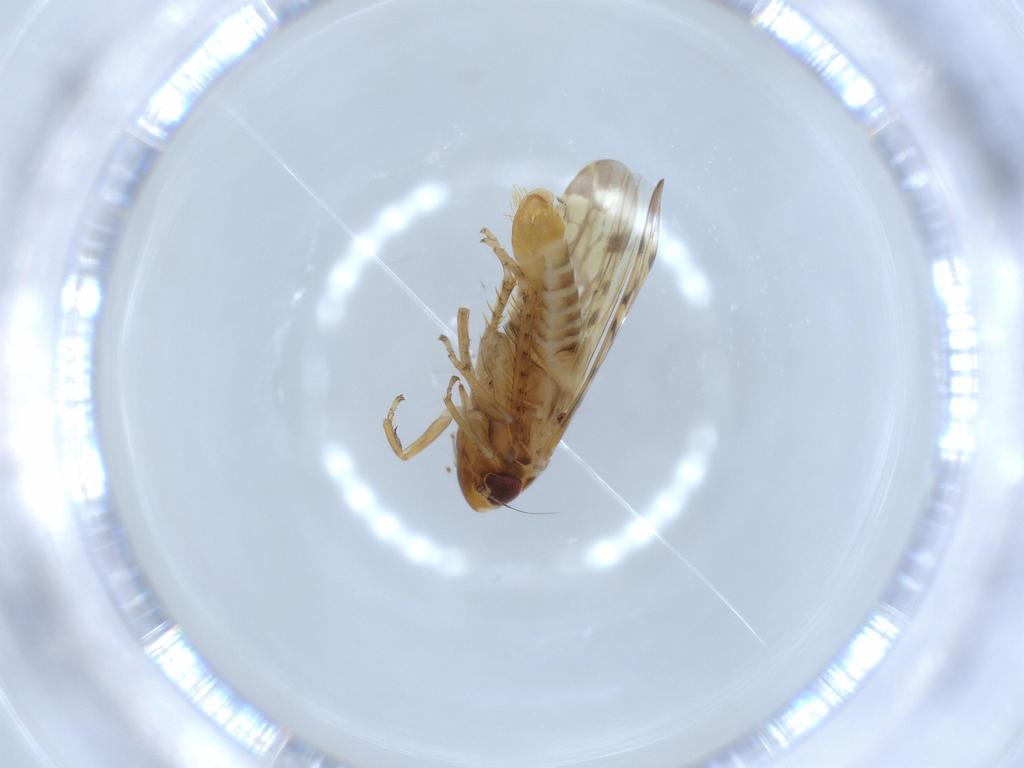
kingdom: Animalia
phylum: Arthropoda
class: Insecta
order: Hemiptera
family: Cicadellidae
